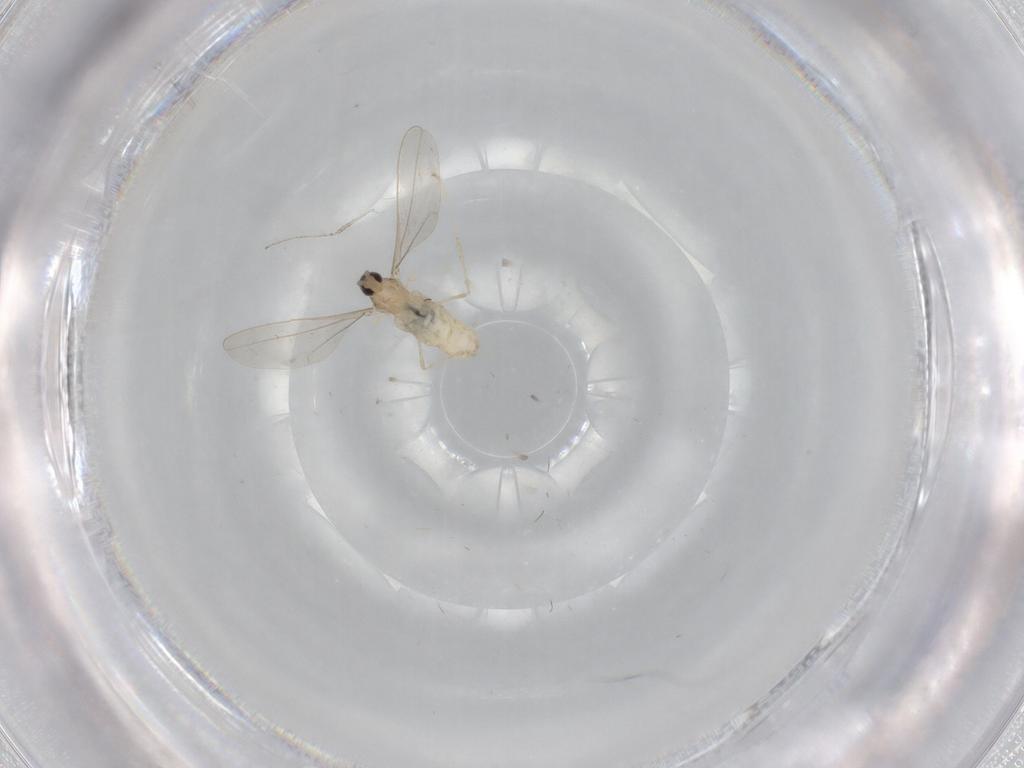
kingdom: Animalia
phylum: Arthropoda
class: Insecta
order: Diptera
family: Cecidomyiidae
